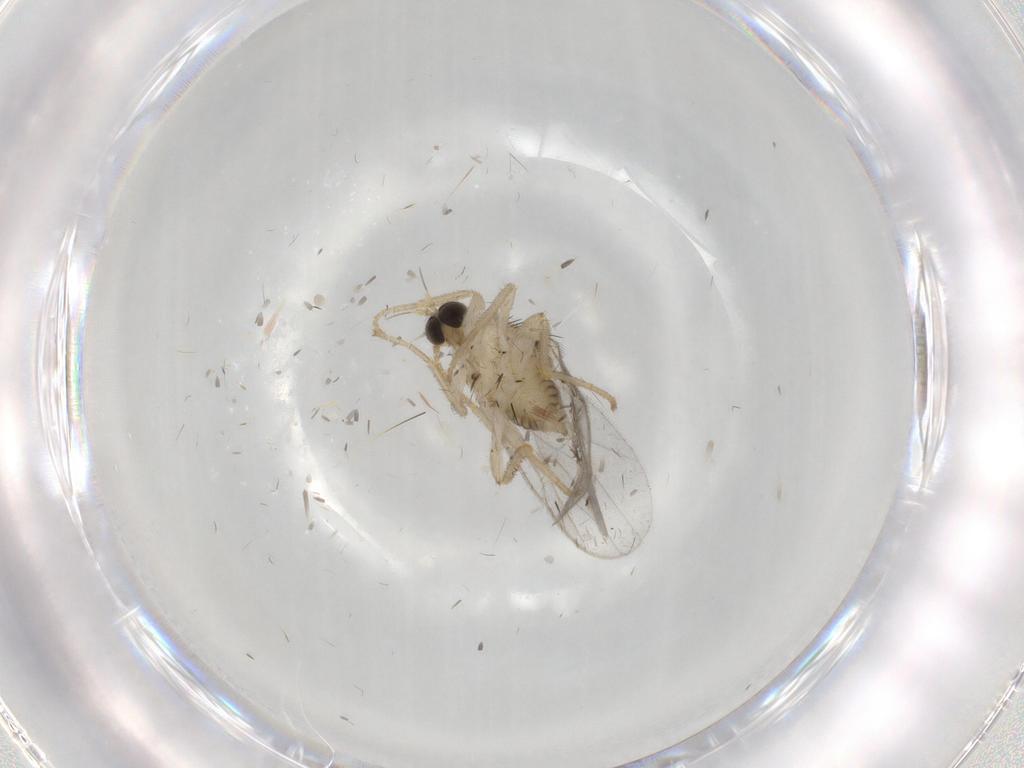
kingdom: Animalia
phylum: Arthropoda
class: Insecta
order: Diptera
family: Hybotidae
